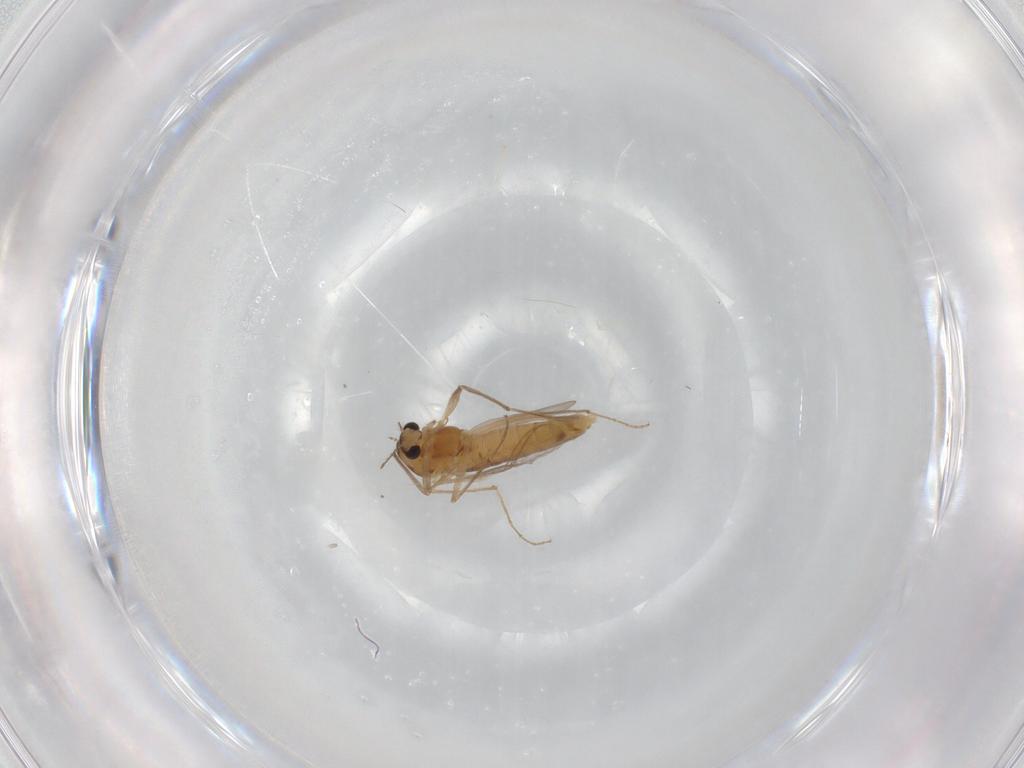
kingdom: Animalia
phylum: Arthropoda
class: Insecta
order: Diptera
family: Chironomidae
